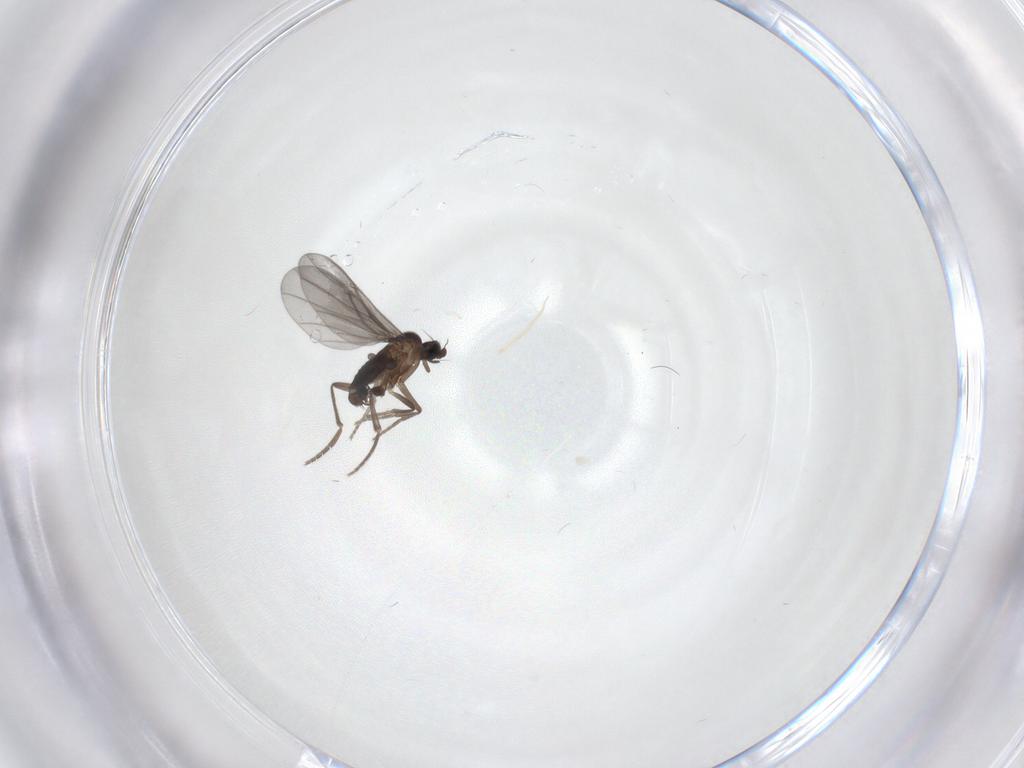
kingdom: Animalia
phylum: Arthropoda
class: Insecta
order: Diptera
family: Phoridae
